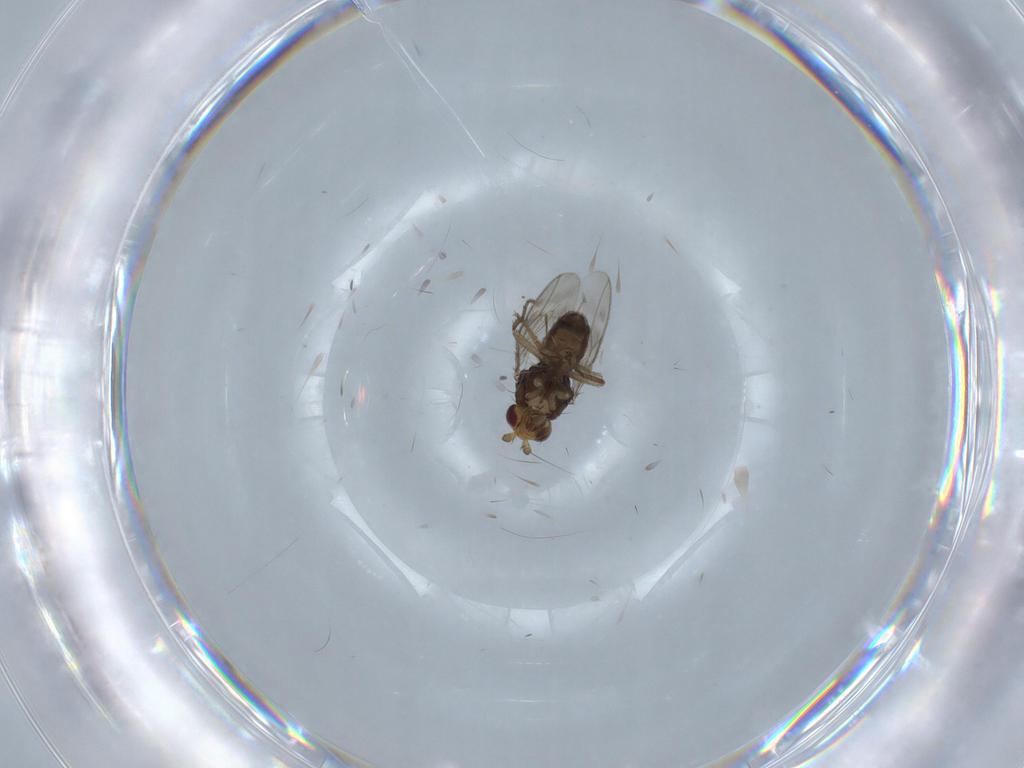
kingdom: Animalia
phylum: Arthropoda
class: Insecta
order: Diptera
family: Sphaeroceridae
